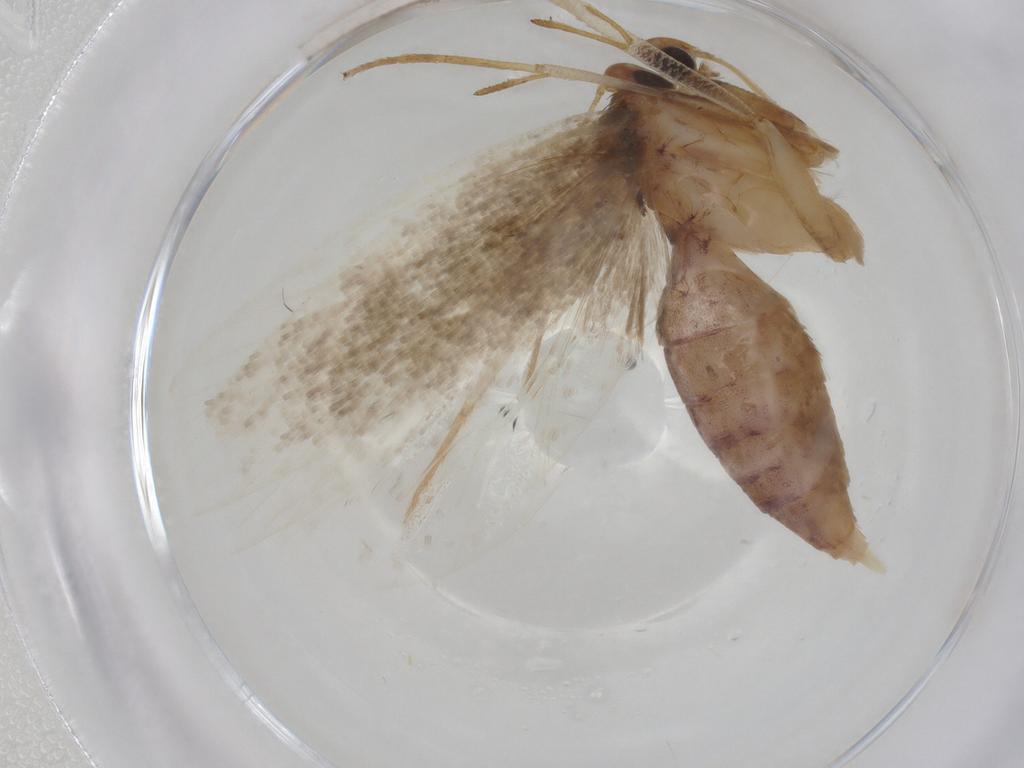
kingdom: Animalia
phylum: Arthropoda
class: Insecta
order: Lepidoptera
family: Gelechiidae
